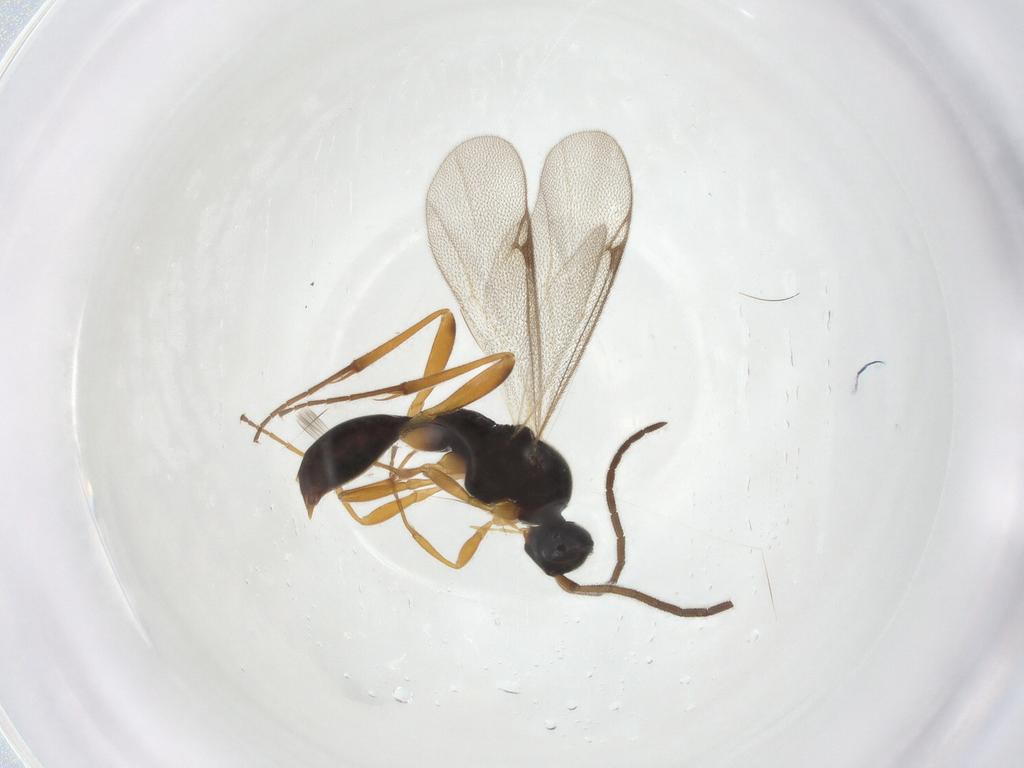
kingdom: Animalia
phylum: Arthropoda
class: Insecta
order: Hymenoptera
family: Proctotrupidae
